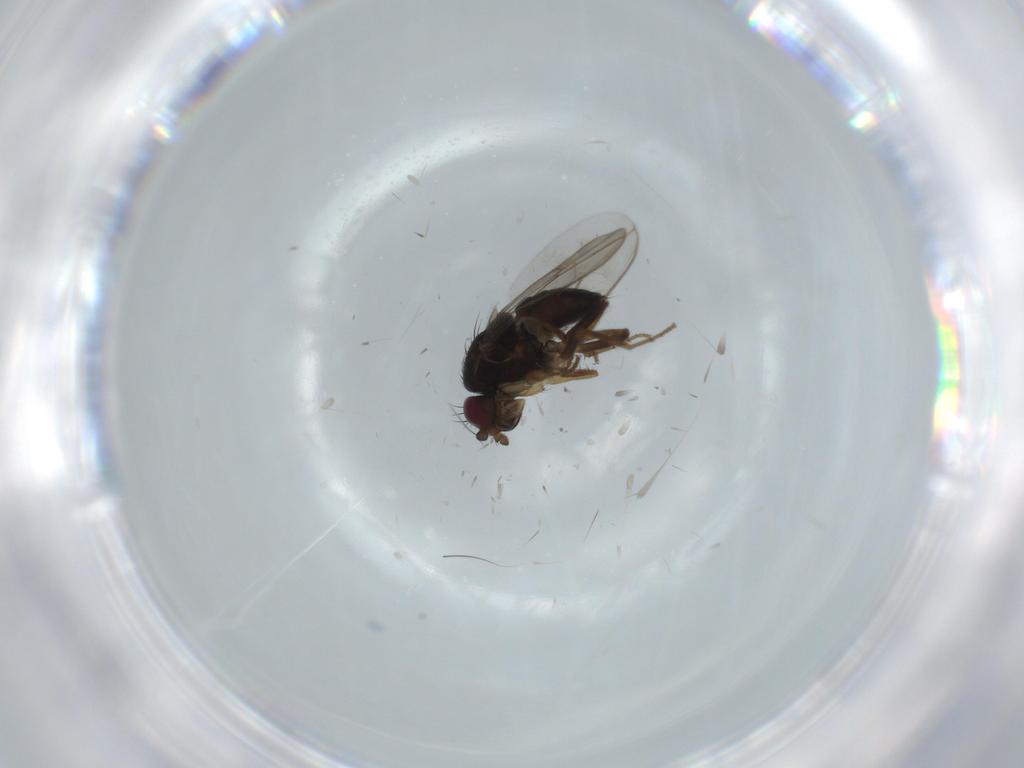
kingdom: Animalia
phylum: Arthropoda
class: Insecta
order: Diptera
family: Sphaeroceridae
